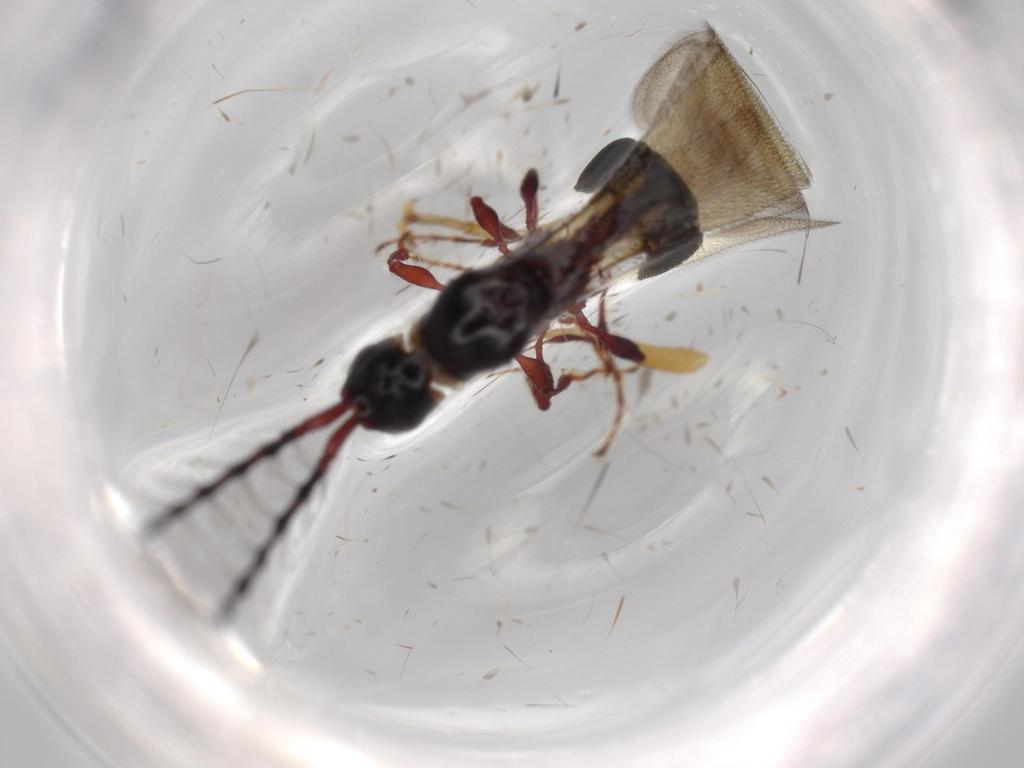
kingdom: Animalia
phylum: Arthropoda
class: Insecta
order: Hymenoptera
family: Diapriidae
